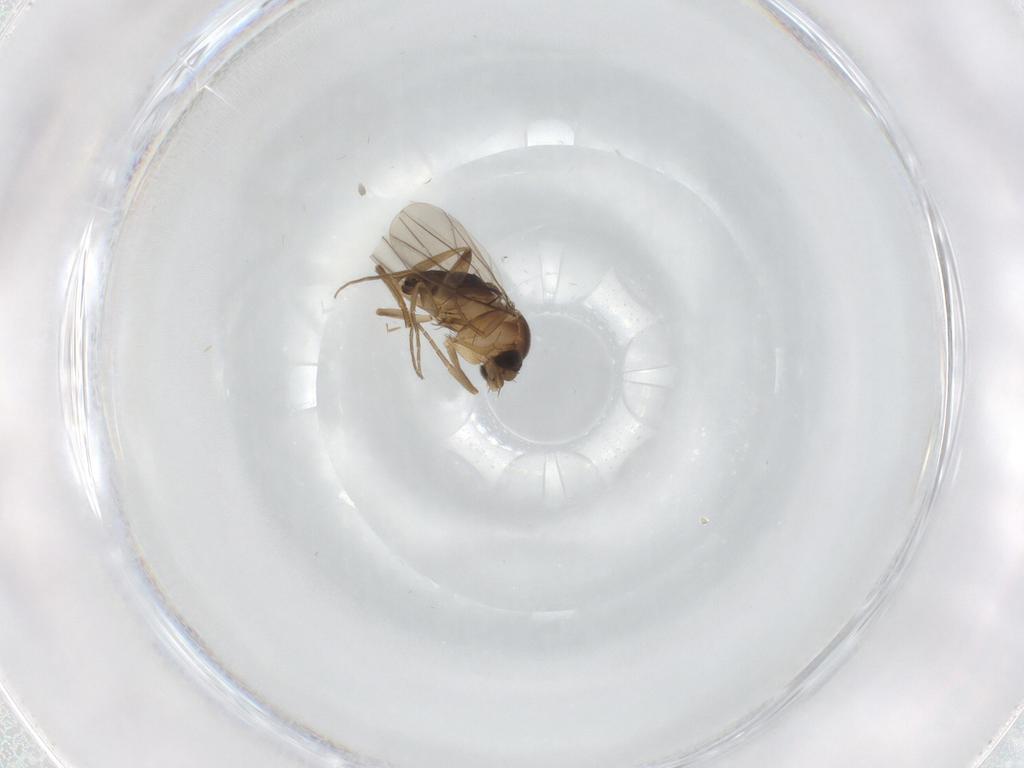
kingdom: Animalia
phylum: Arthropoda
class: Insecta
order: Diptera
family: Phoridae
